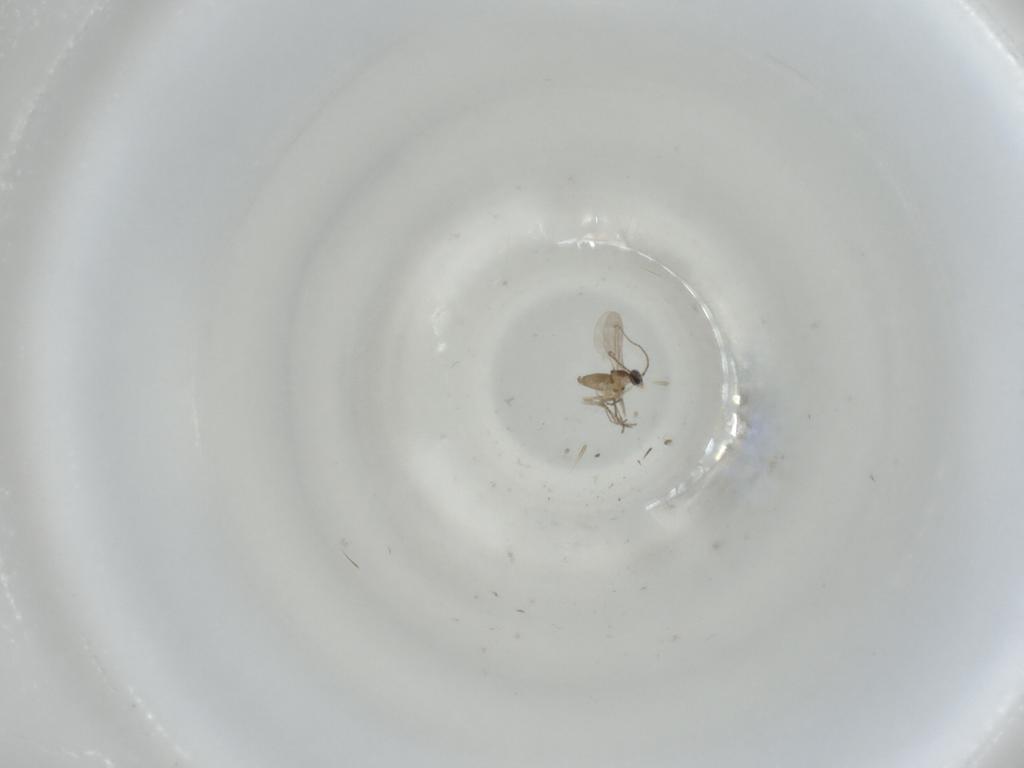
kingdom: Animalia
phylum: Arthropoda
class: Insecta
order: Diptera
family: Cecidomyiidae
